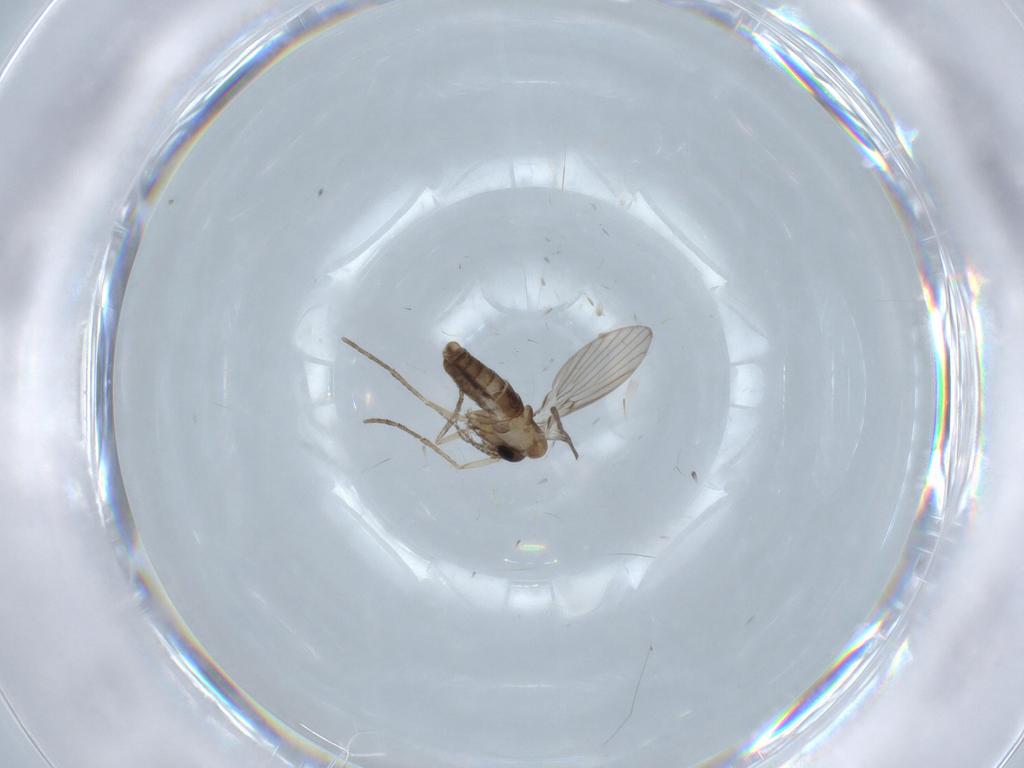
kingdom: Animalia
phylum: Arthropoda
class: Insecta
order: Diptera
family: Psychodidae
